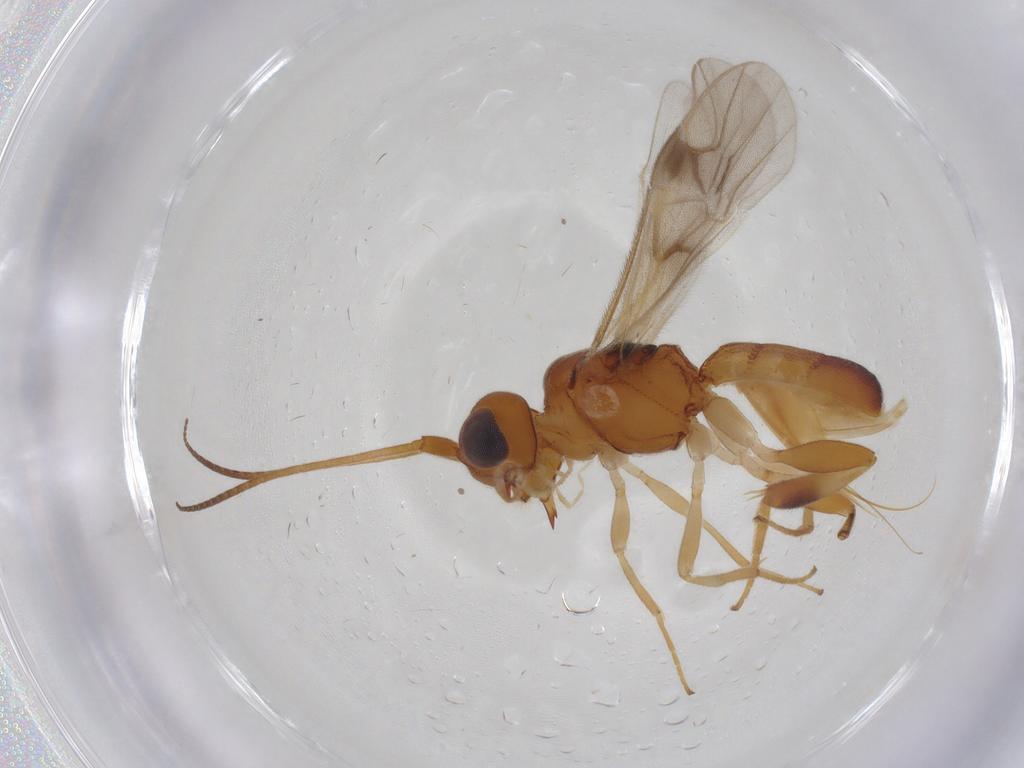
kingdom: Animalia
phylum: Arthropoda
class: Insecta
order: Hymenoptera
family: Braconidae
